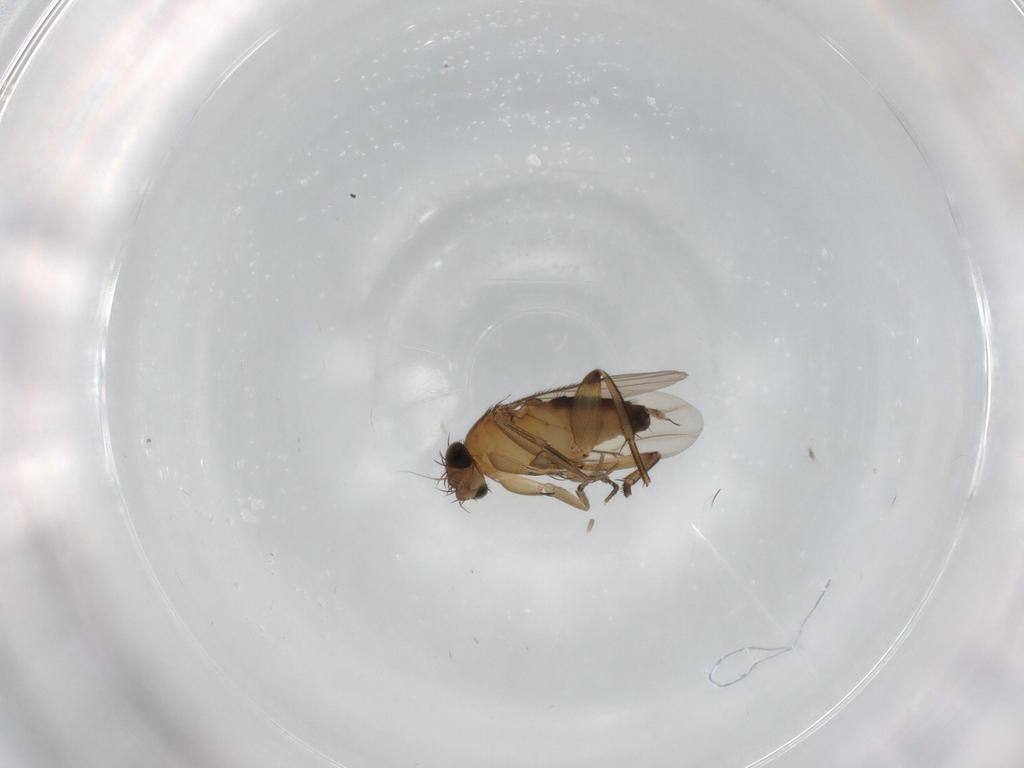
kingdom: Animalia
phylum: Arthropoda
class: Insecta
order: Diptera
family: Phoridae
